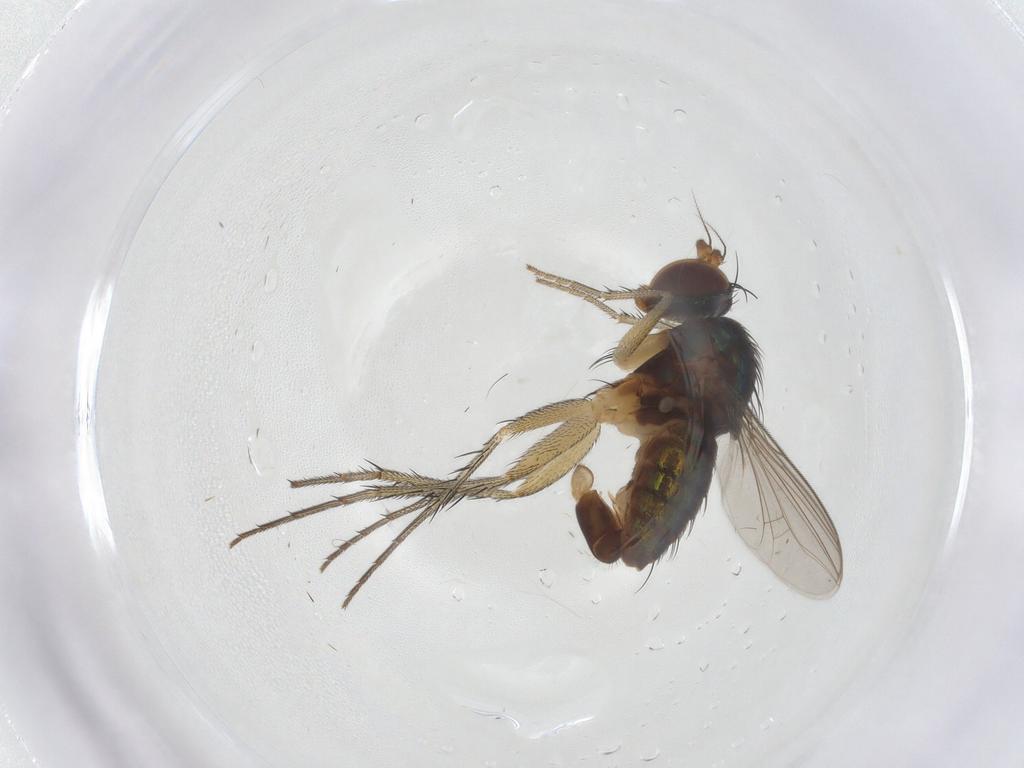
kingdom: Animalia
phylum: Arthropoda
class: Insecta
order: Diptera
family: Dolichopodidae
